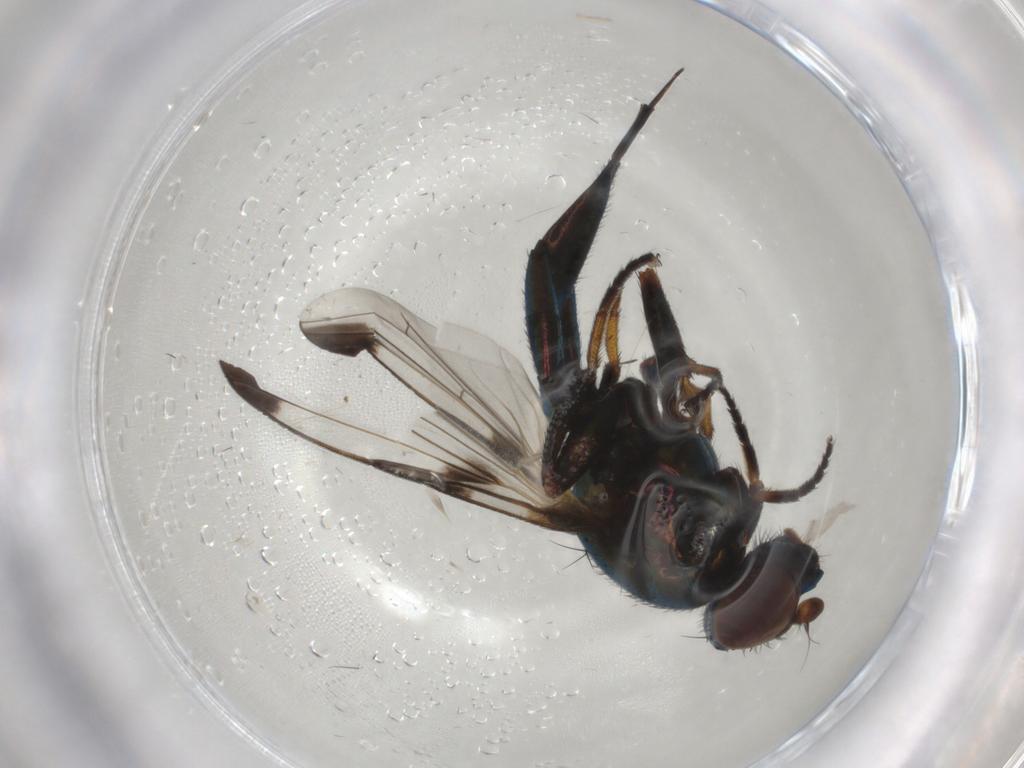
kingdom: Animalia
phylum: Arthropoda
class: Insecta
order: Diptera
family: Ulidiidae
